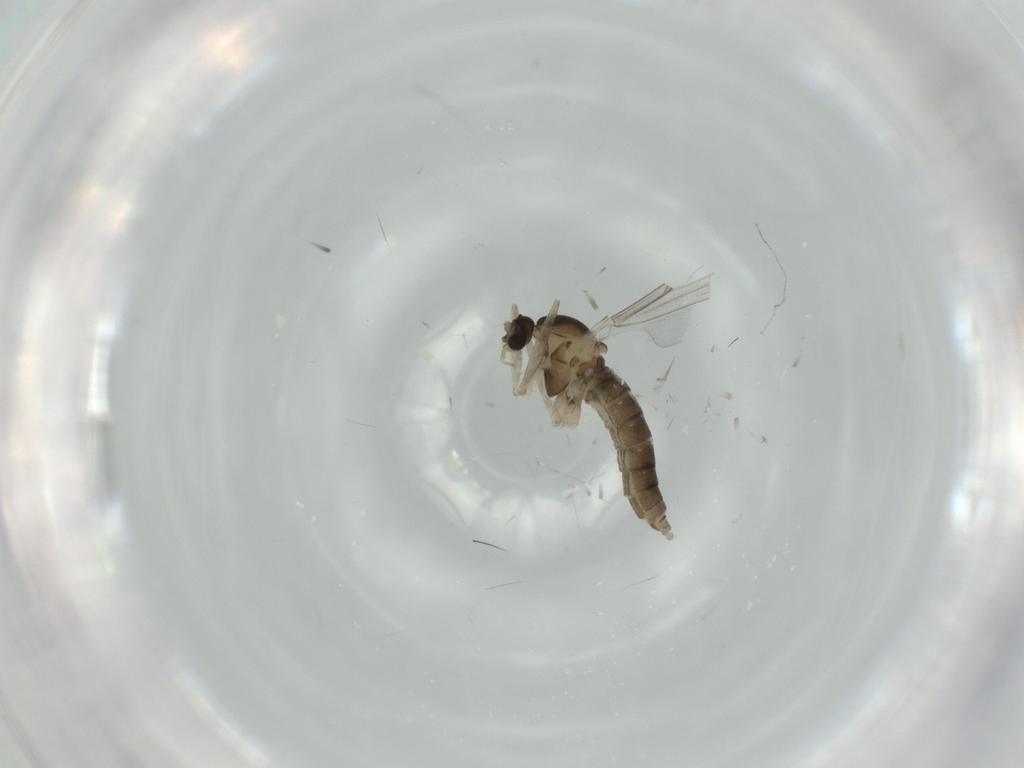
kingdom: Animalia
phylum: Arthropoda
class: Insecta
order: Diptera
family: Cecidomyiidae
